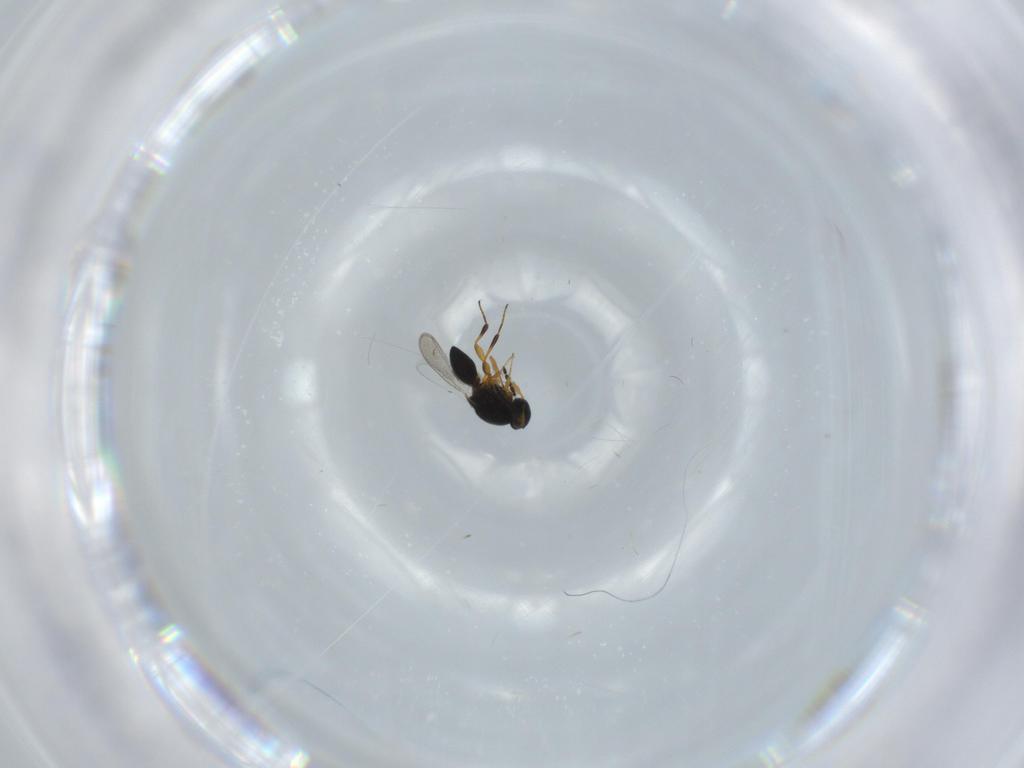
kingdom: Animalia
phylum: Arthropoda
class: Insecta
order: Hymenoptera
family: Platygastridae
